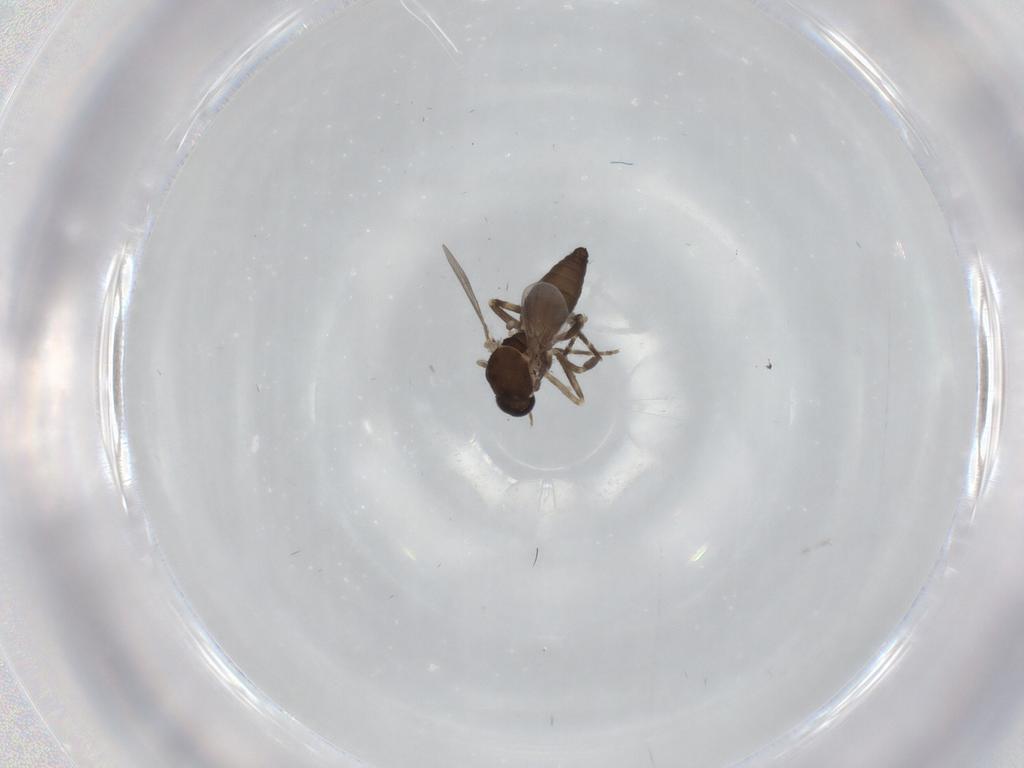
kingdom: Animalia
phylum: Arthropoda
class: Insecta
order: Diptera
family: Ceratopogonidae
